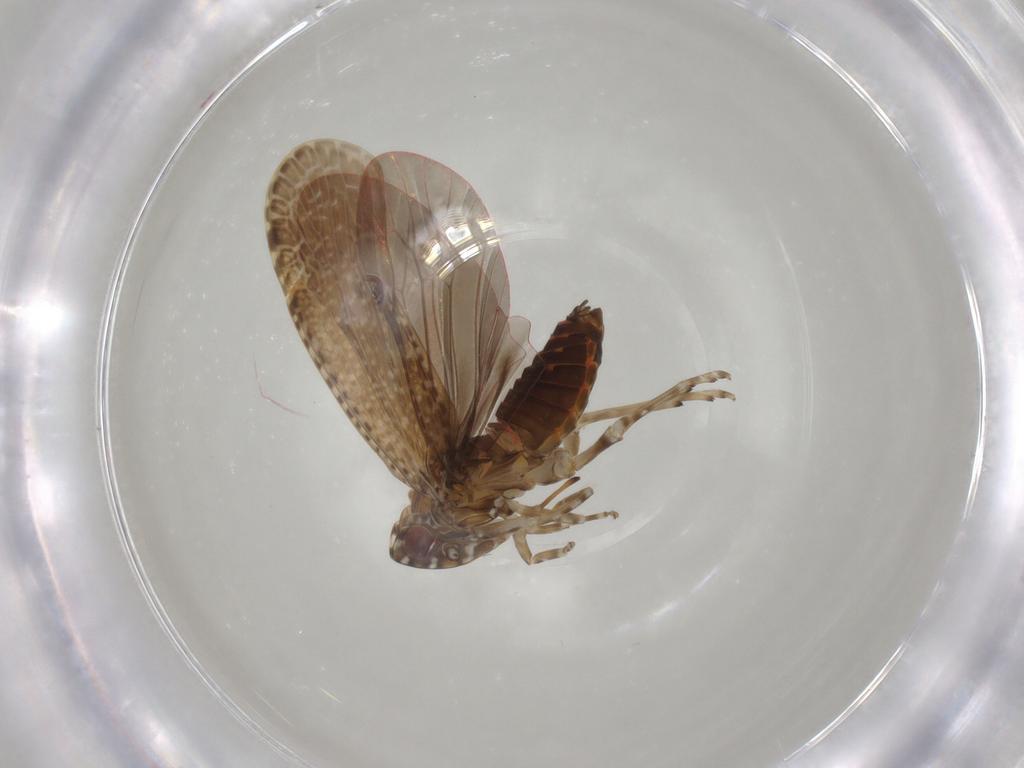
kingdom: Animalia
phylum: Arthropoda
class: Insecta
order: Hemiptera
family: Achilidae
